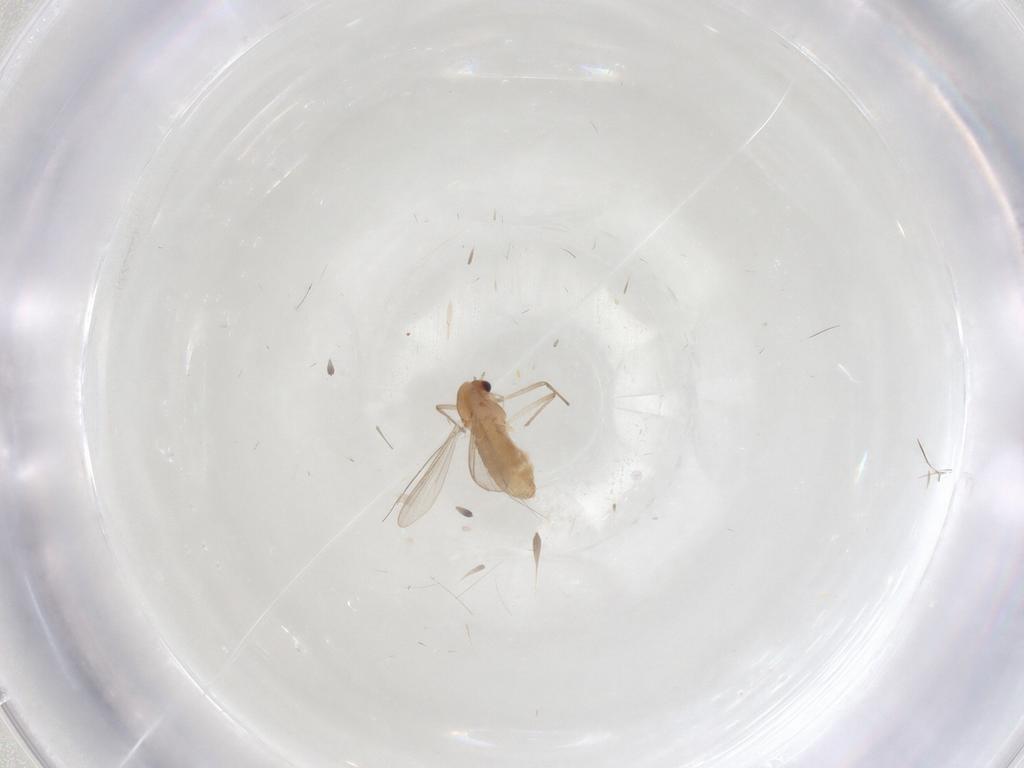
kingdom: Animalia
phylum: Arthropoda
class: Insecta
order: Diptera
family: Chironomidae
